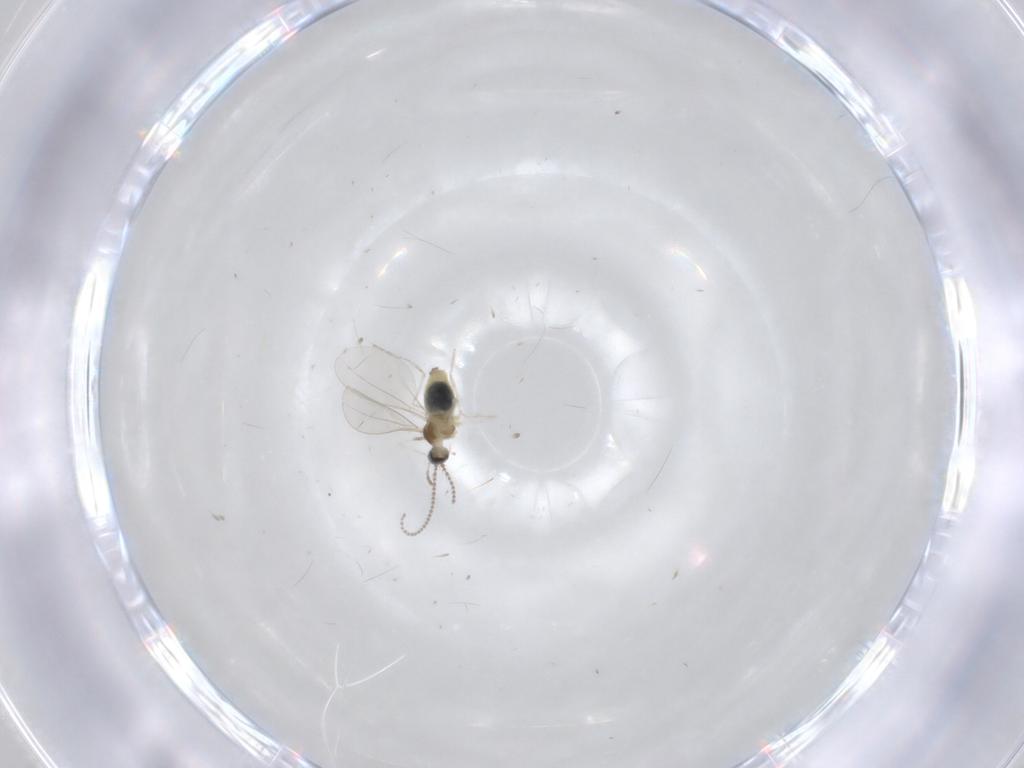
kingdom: Animalia
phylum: Arthropoda
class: Insecta
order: Diptera
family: Cecidomyiidae
